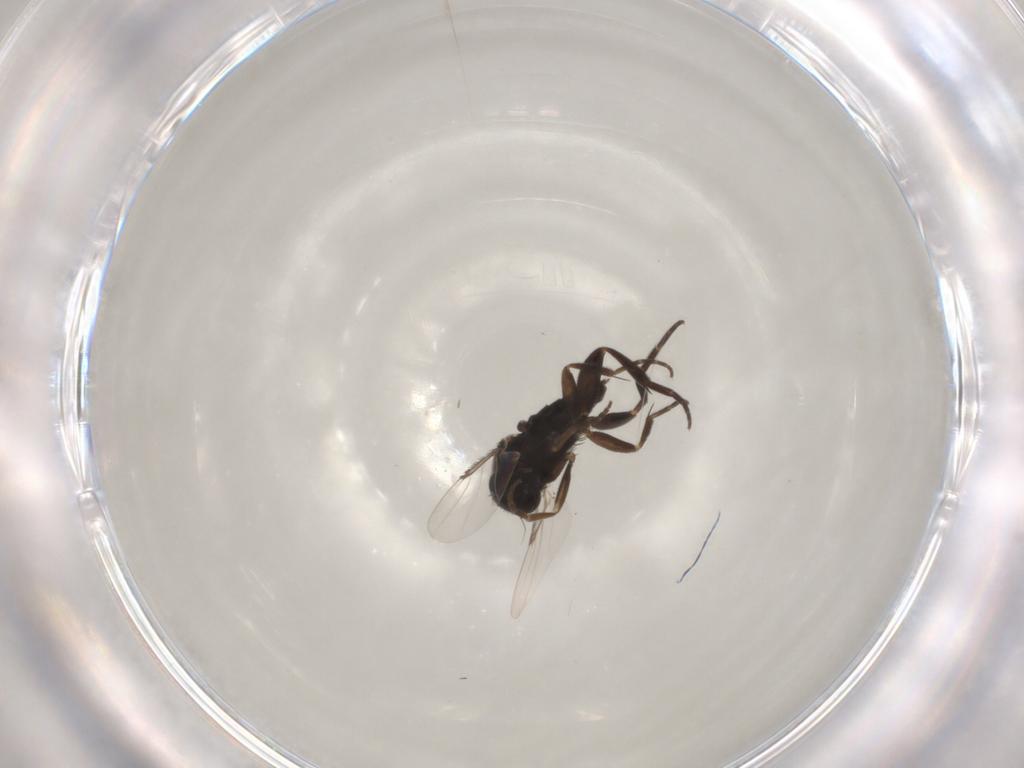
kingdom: Animalia
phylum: Arthropoda
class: Insecta
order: Diptera
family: Phoridae
